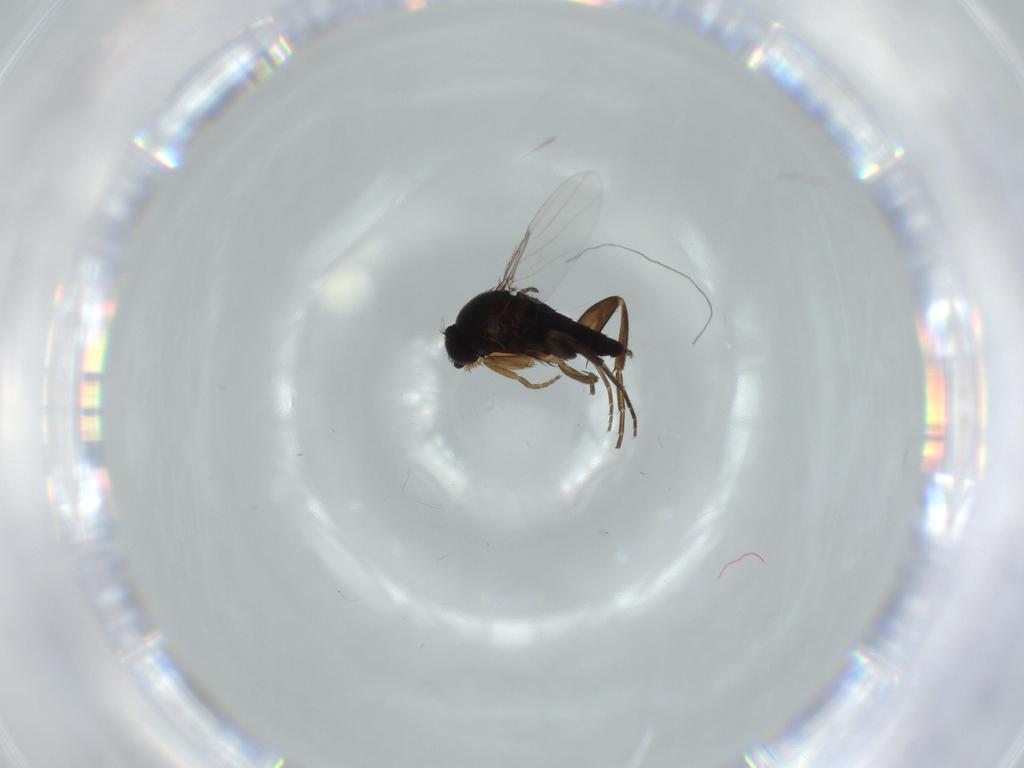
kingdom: Animalia
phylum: Arthropoda
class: Insecta
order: Diptera
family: Phoridae
